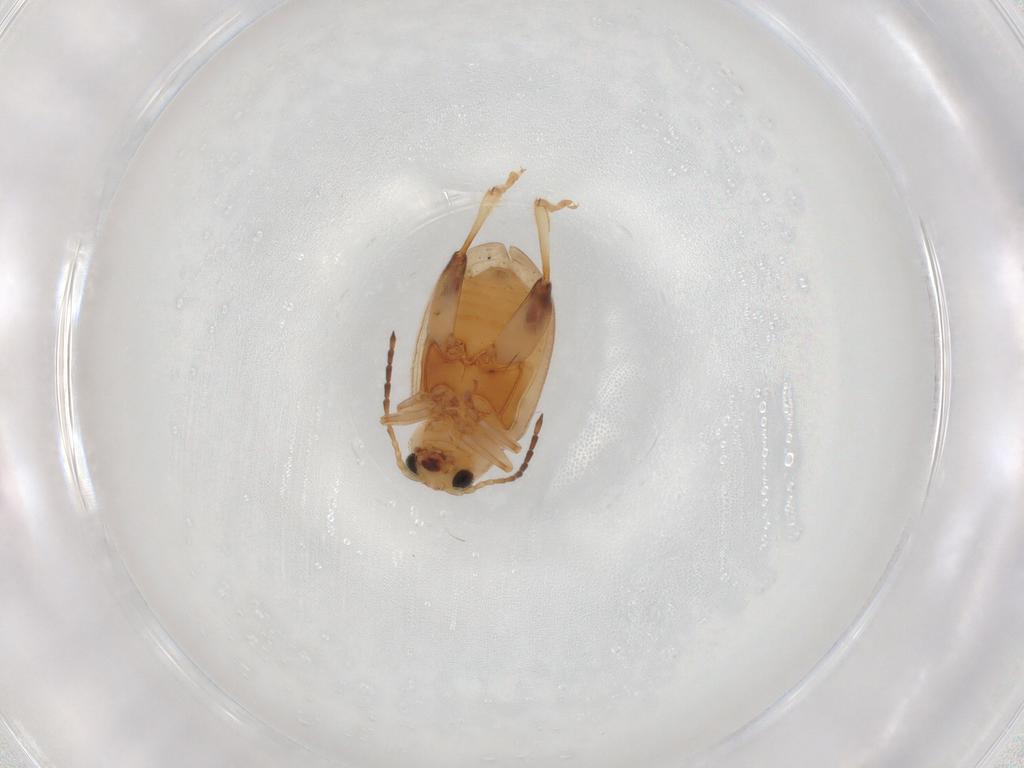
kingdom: Animalia
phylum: Arthropoda
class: Insecta
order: Coleoptera
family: Chrysomelidae
